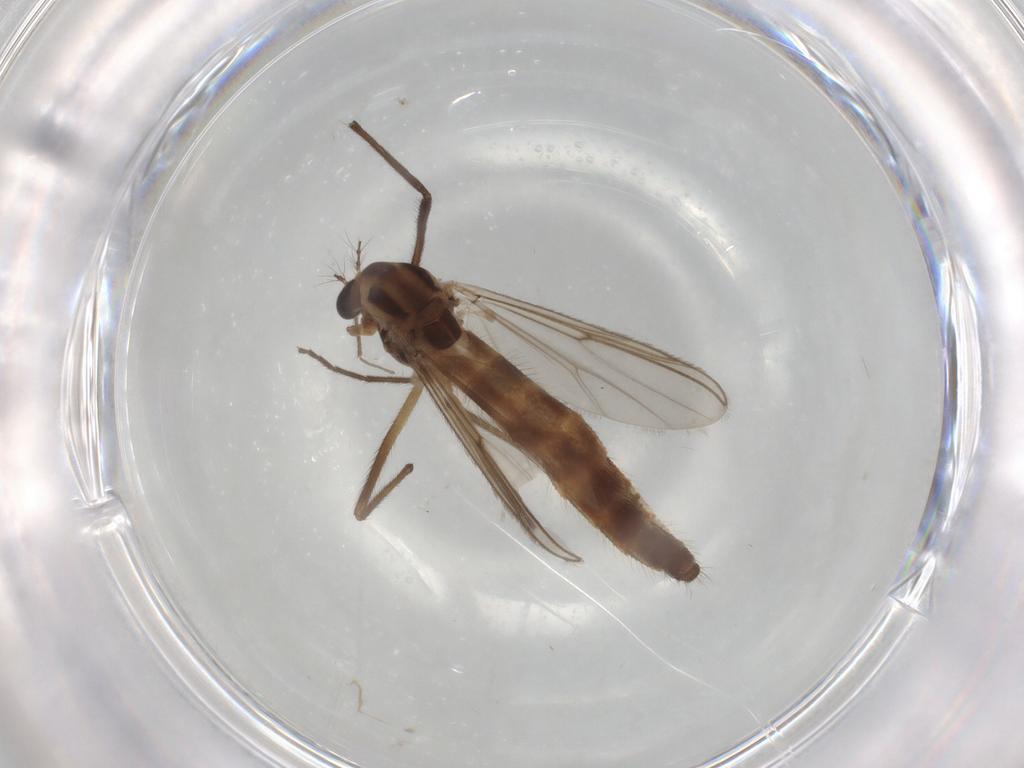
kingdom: Animalia
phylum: Arthropoda
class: Insecta
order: Diptera
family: Sciaridae
